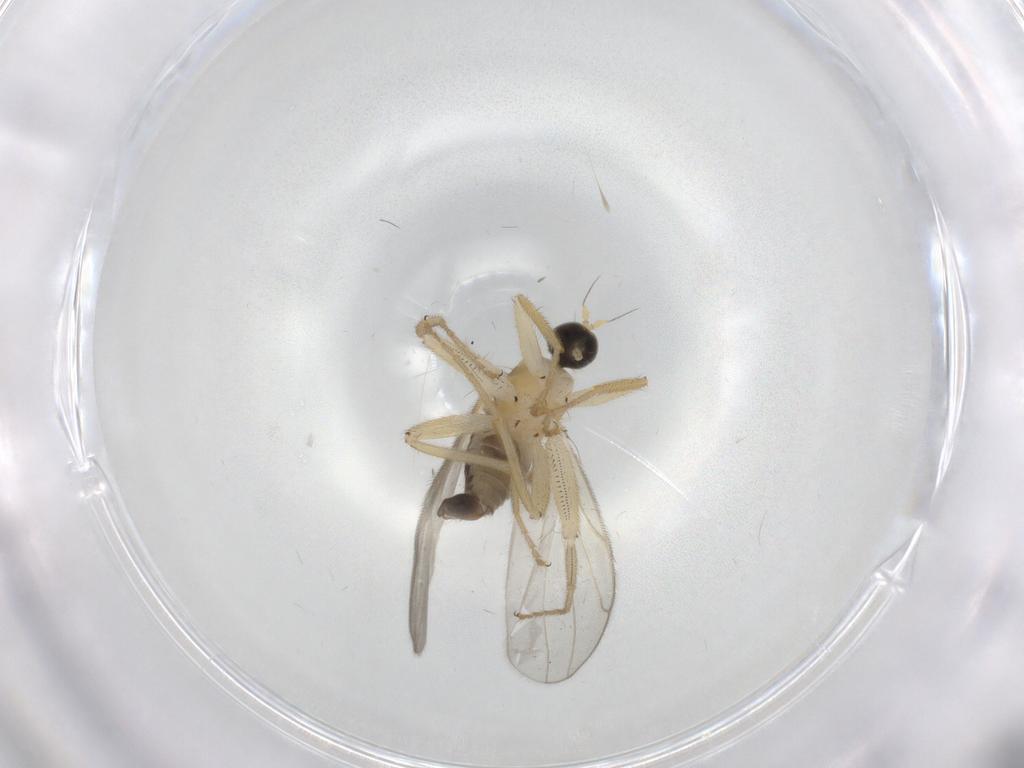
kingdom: Animalia
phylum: Arthropoda
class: Insecta
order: Diptera
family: Hybotidae
